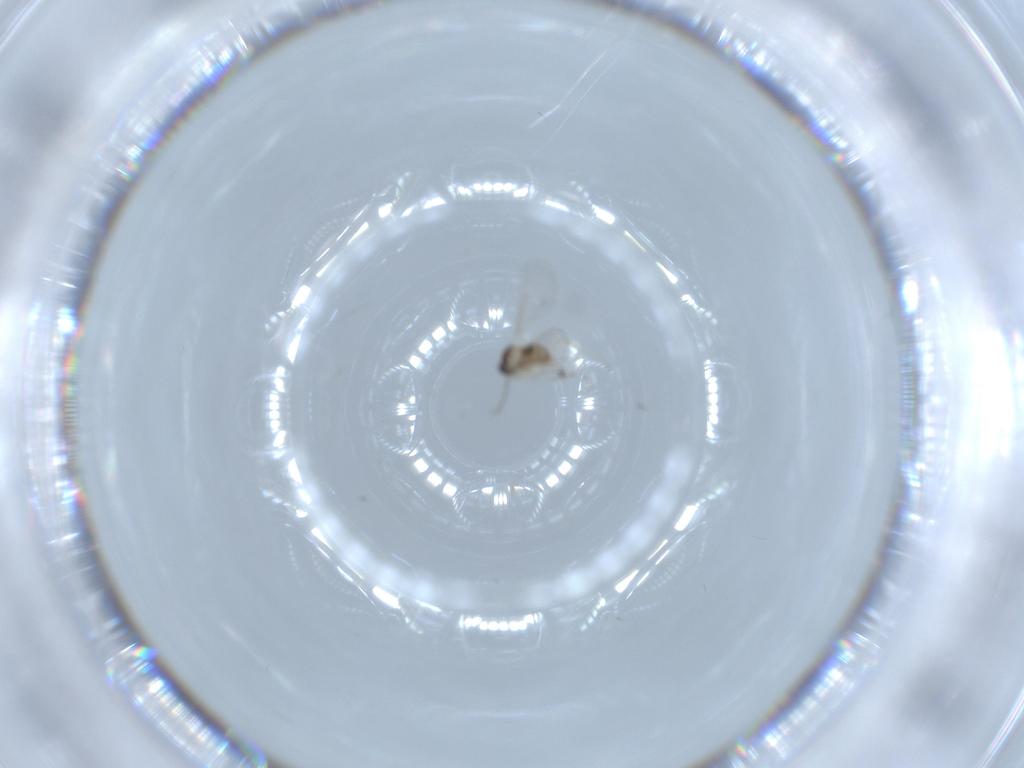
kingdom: Animalia
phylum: Arthropoda
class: Insecta
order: Diptera
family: Cecidomyiidae
